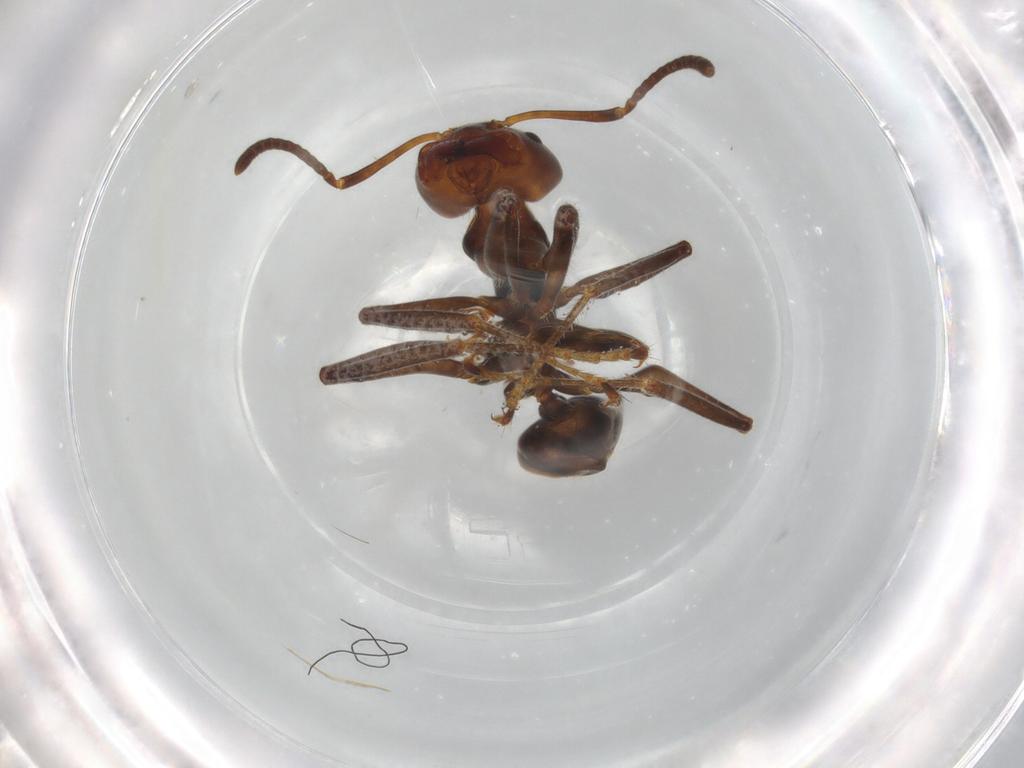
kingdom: Animalia
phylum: Arthropoda
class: Insecta
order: Hymenoptera
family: Formicidae
